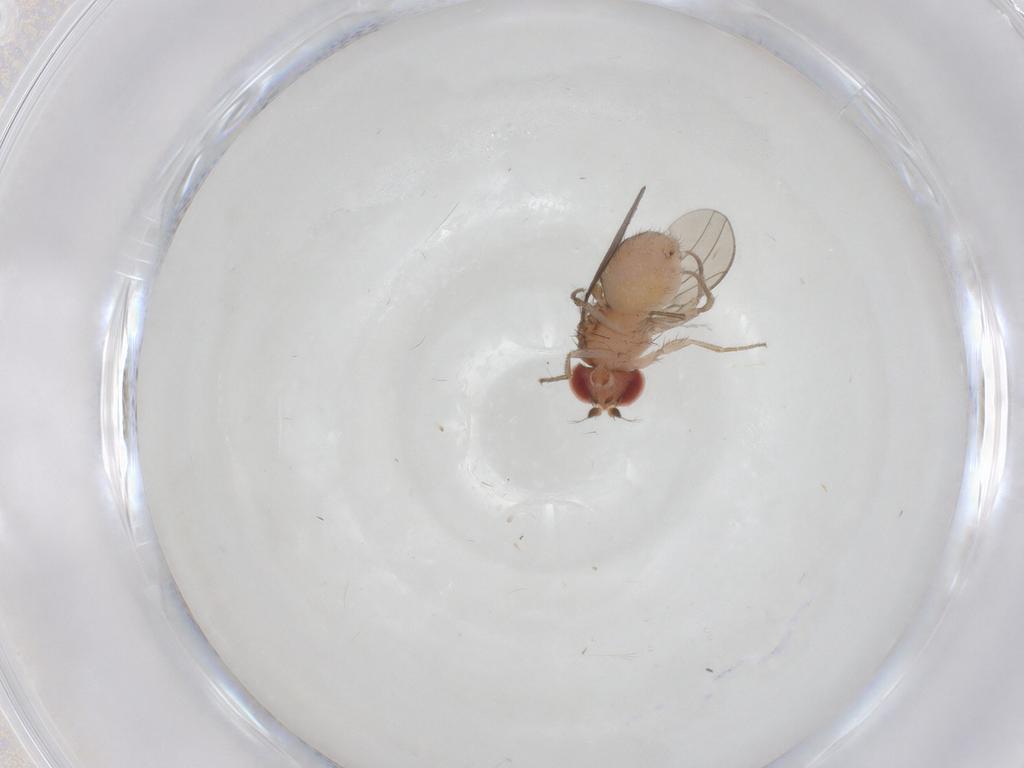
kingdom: Animalia
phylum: Arthropoda
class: Insecta
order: Diptera
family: Drosophilidae
